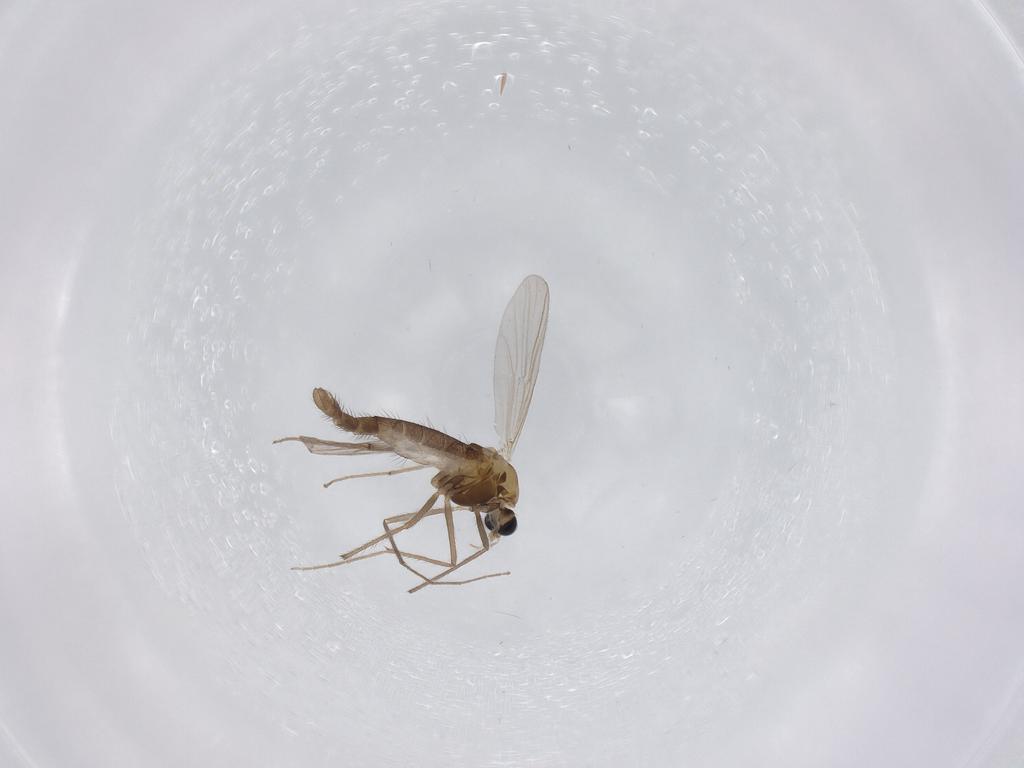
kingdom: Animalia
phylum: Arthropoda
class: Insecta
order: Diptera
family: Chironomidae
